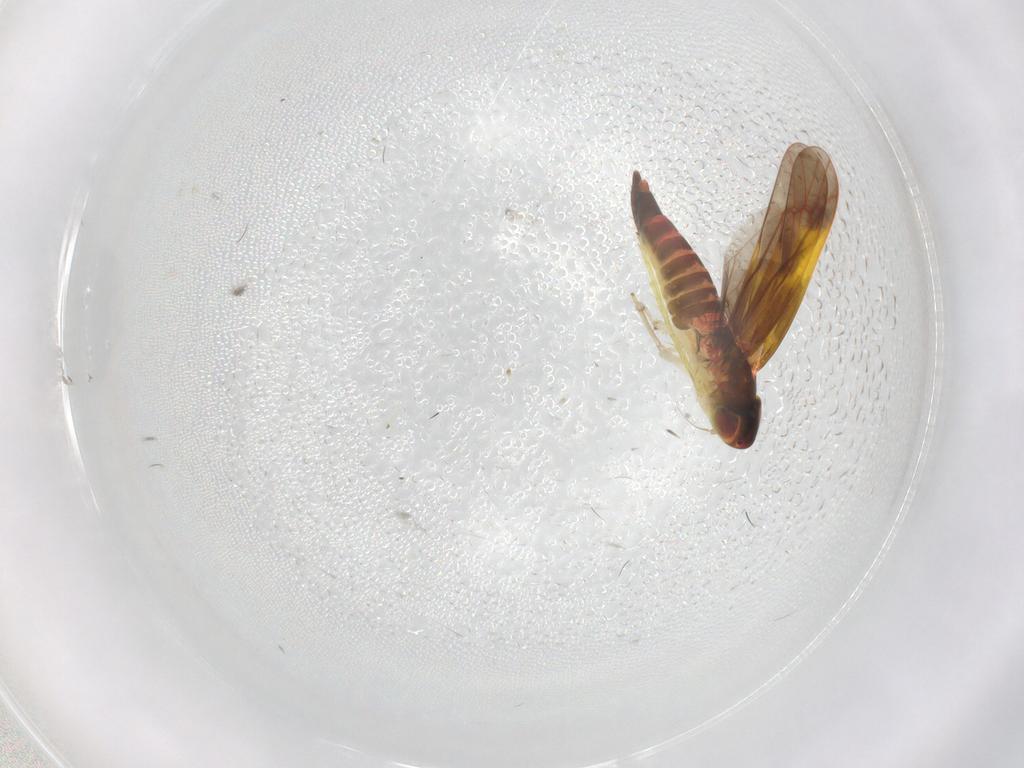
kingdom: Animalia
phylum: Arthropoda
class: Insecta
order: Hemiptera
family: Cicadellidae
